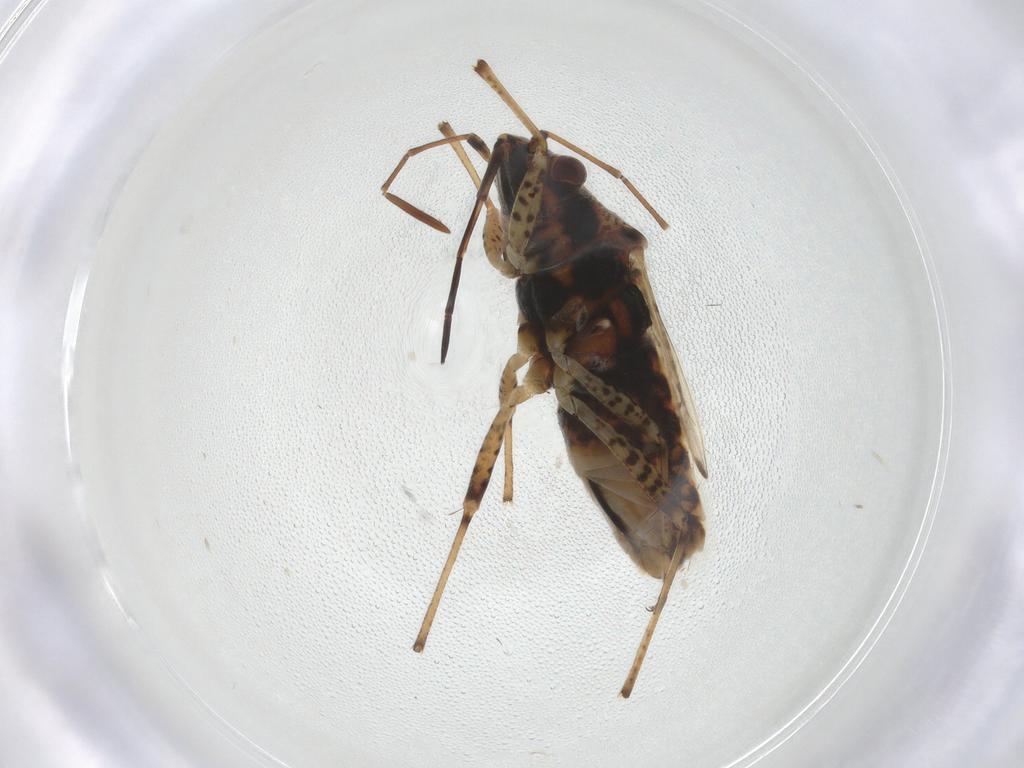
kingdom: Animalia
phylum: Arthropoda
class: Insecta
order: Hemiptera
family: Lygaeidae
